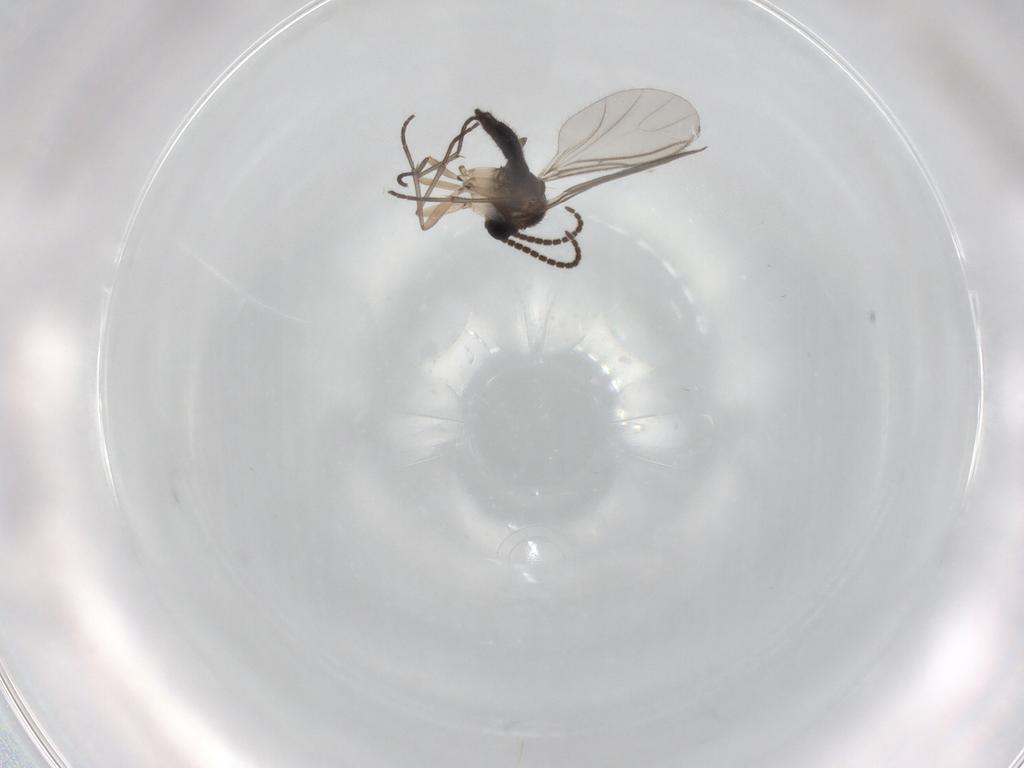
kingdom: Animalia
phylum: Arthropoda
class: Insecta
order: Diptera
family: Sciaridae
